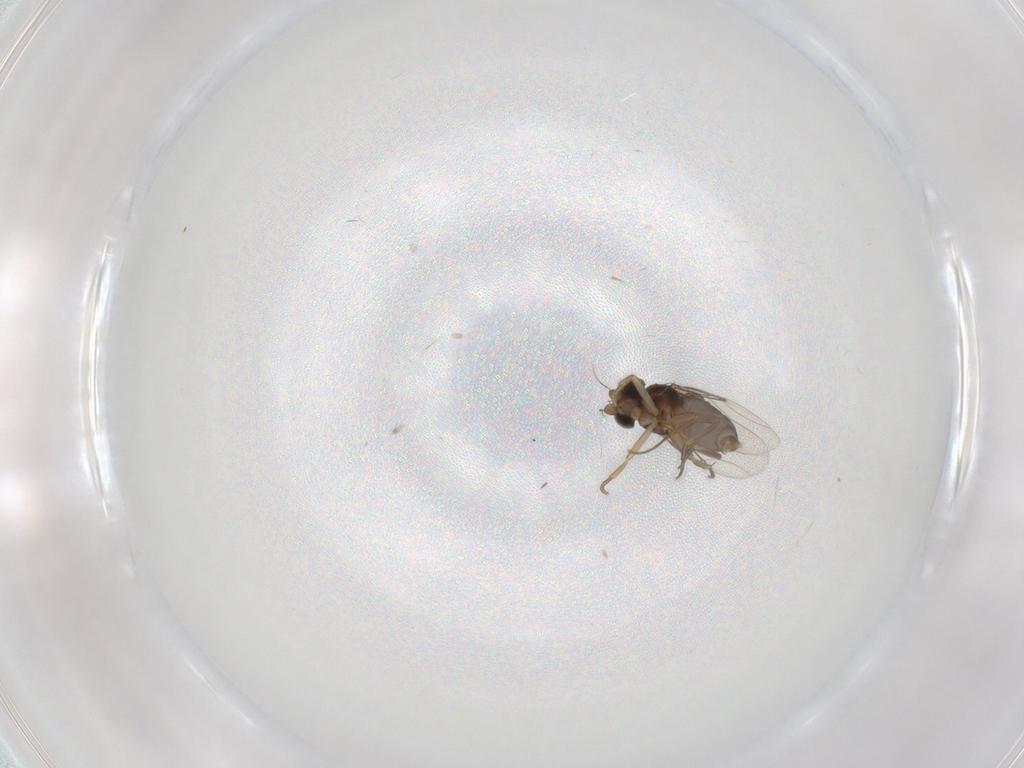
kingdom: Animalia
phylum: Arthropoda
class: Insecta
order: Diptera
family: Phoridae
